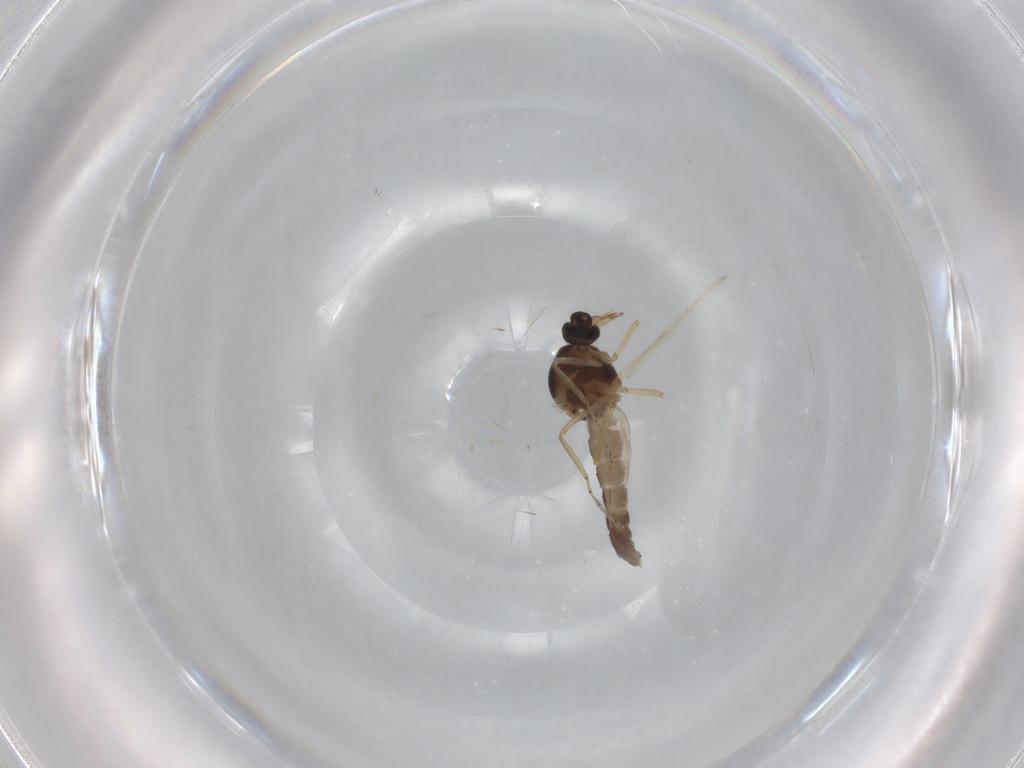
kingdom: Animalia
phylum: Arthropoda
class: Insecta
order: Diptera
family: Ceratopogonidae
